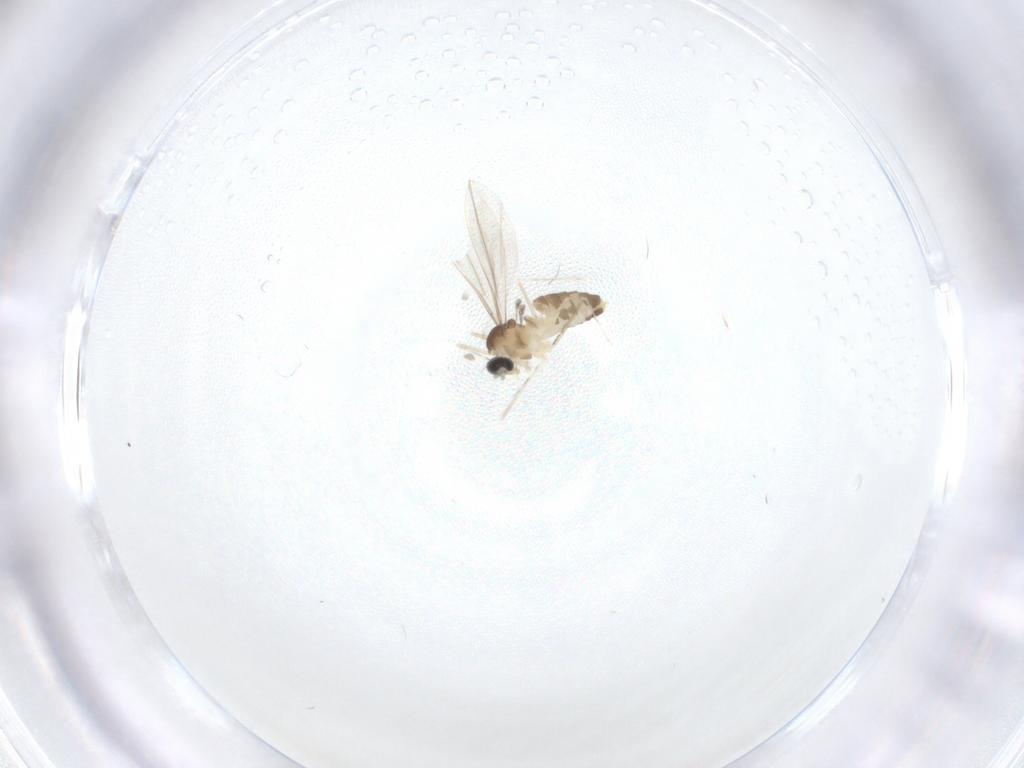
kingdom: Animalia
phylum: Arthropoda
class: Insecta
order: Diptera
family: Cecidomyiidae
